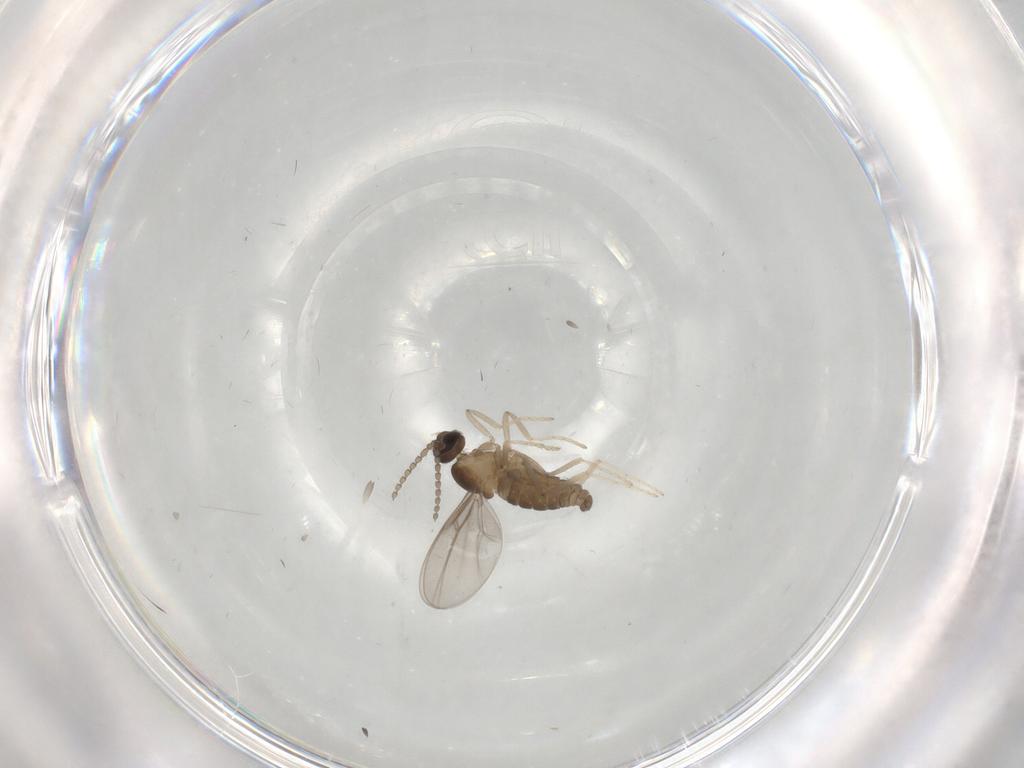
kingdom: Animalia
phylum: Arthropoda
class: Insecta
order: Diptera
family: Cecidomyiidae
